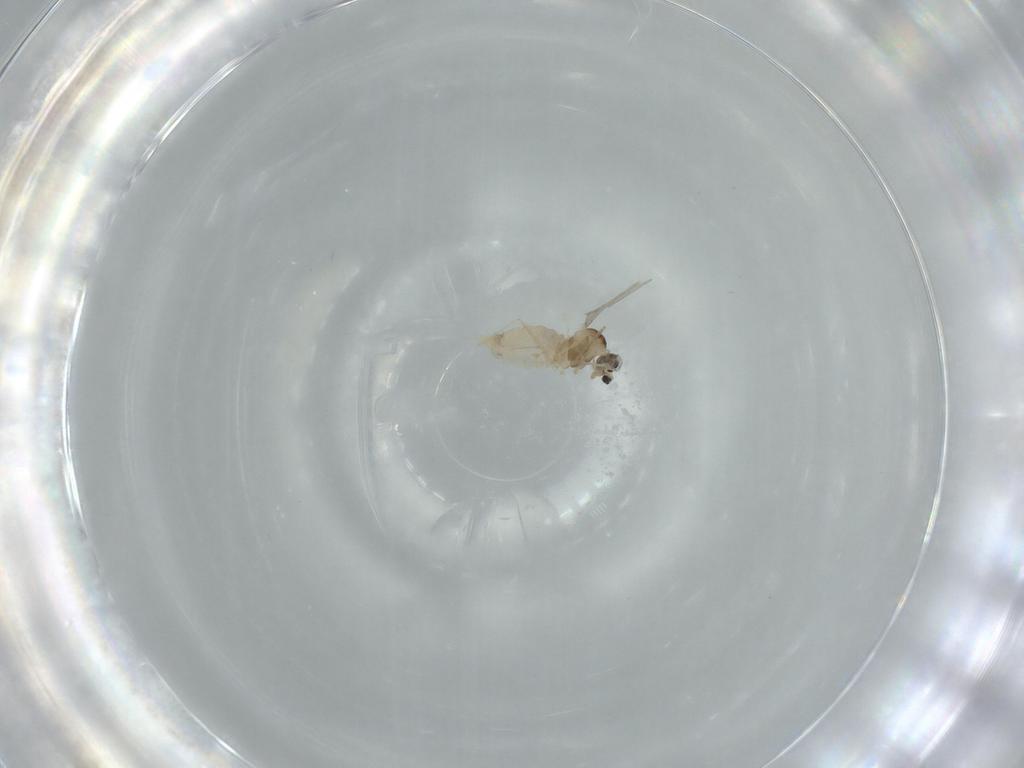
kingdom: Animalia
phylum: Arthropoda
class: Insecta
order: Diptera
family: Cecidomyiidae
